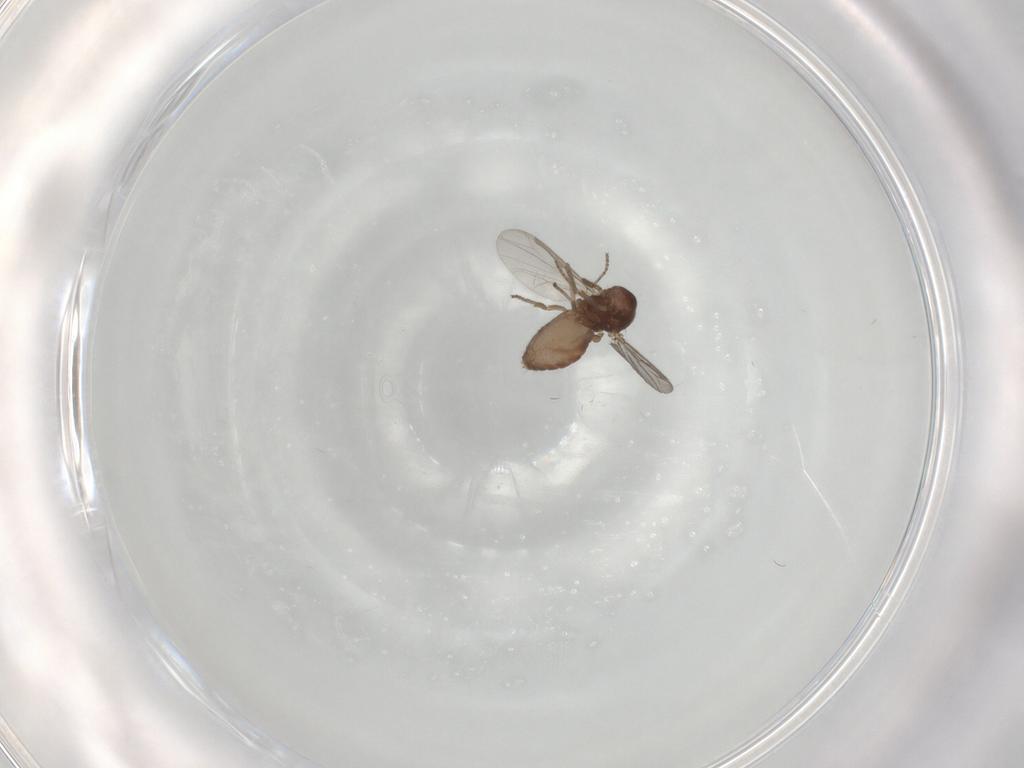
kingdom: Animalia
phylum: Arthropoda
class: Insecta
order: Diptera
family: Ceratopogonidae
